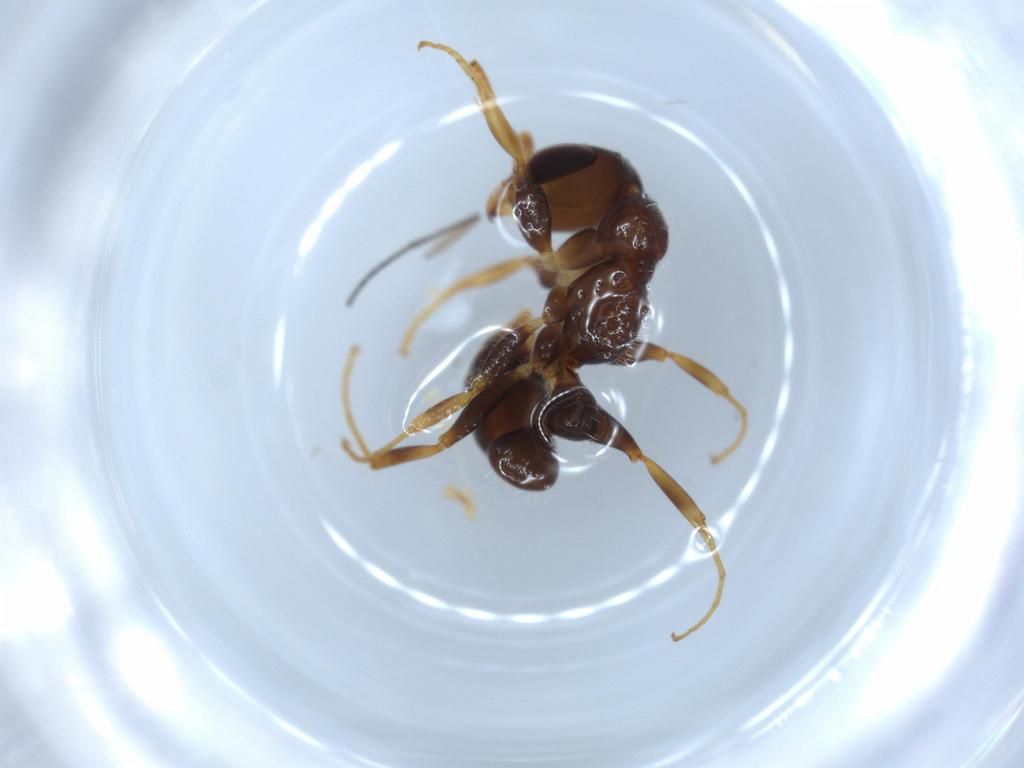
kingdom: Animalia
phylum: Arthropoda
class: Insecta
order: Hymenoptera
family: Formicidae
